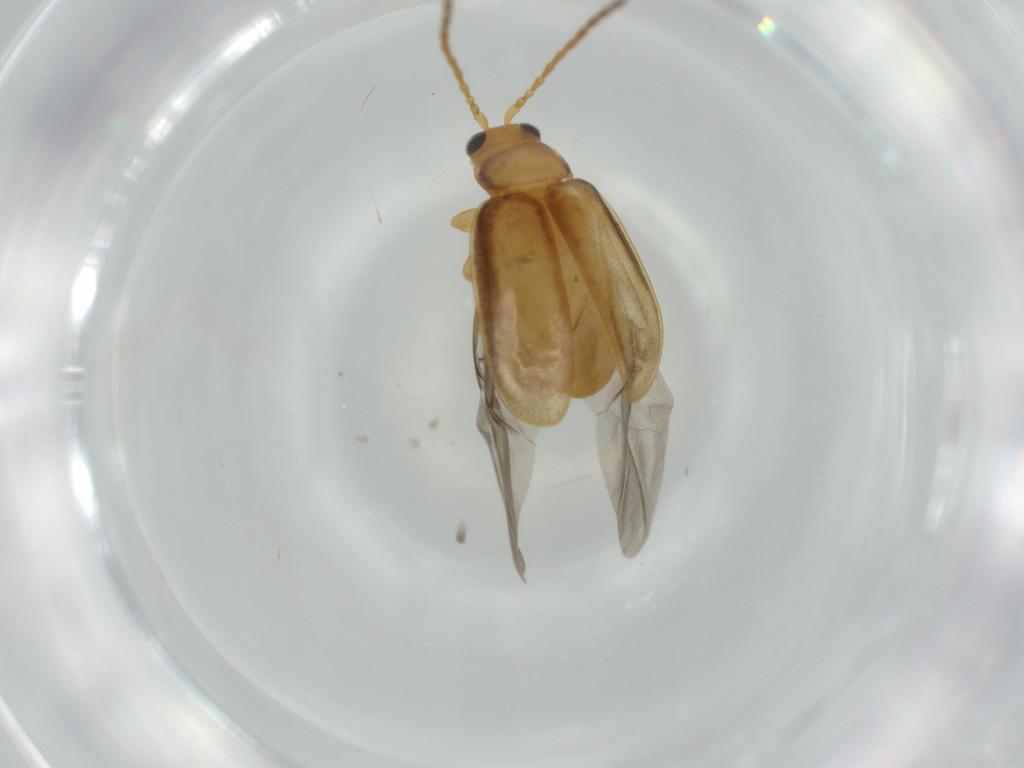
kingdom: Animalia
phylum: Arthropoda
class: Insecta
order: Coleoptera
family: Chrysomelidae
